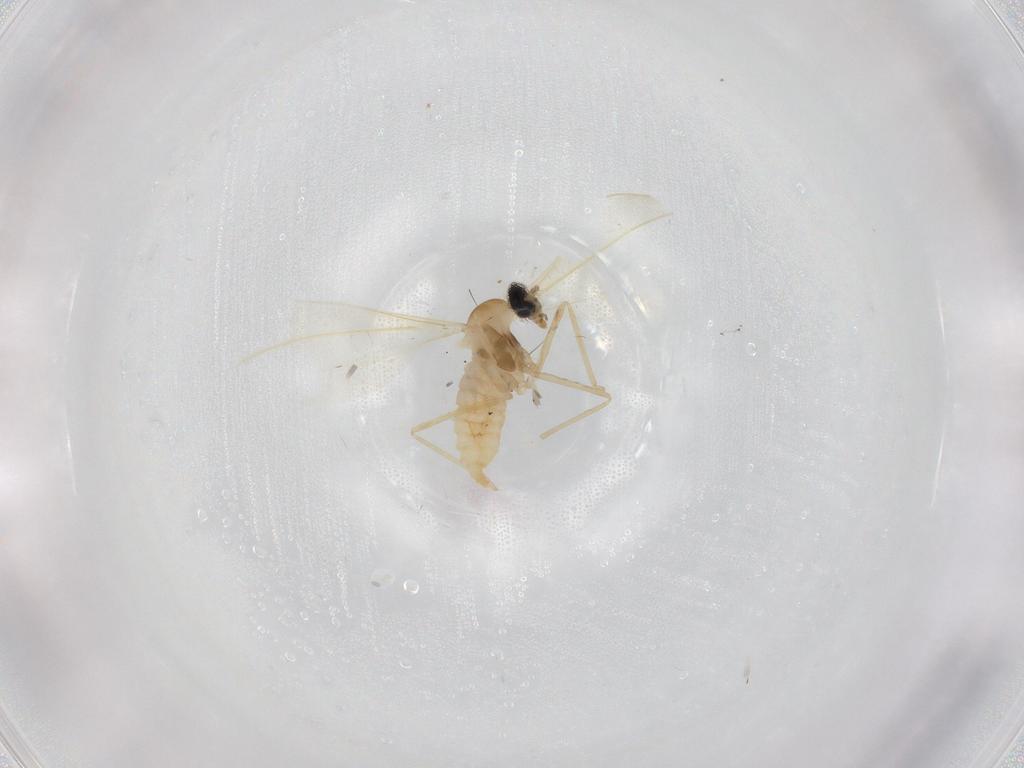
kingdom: Animalia
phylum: Arthropoda
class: Insecta
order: Diptera
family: Cecidomyiidae
